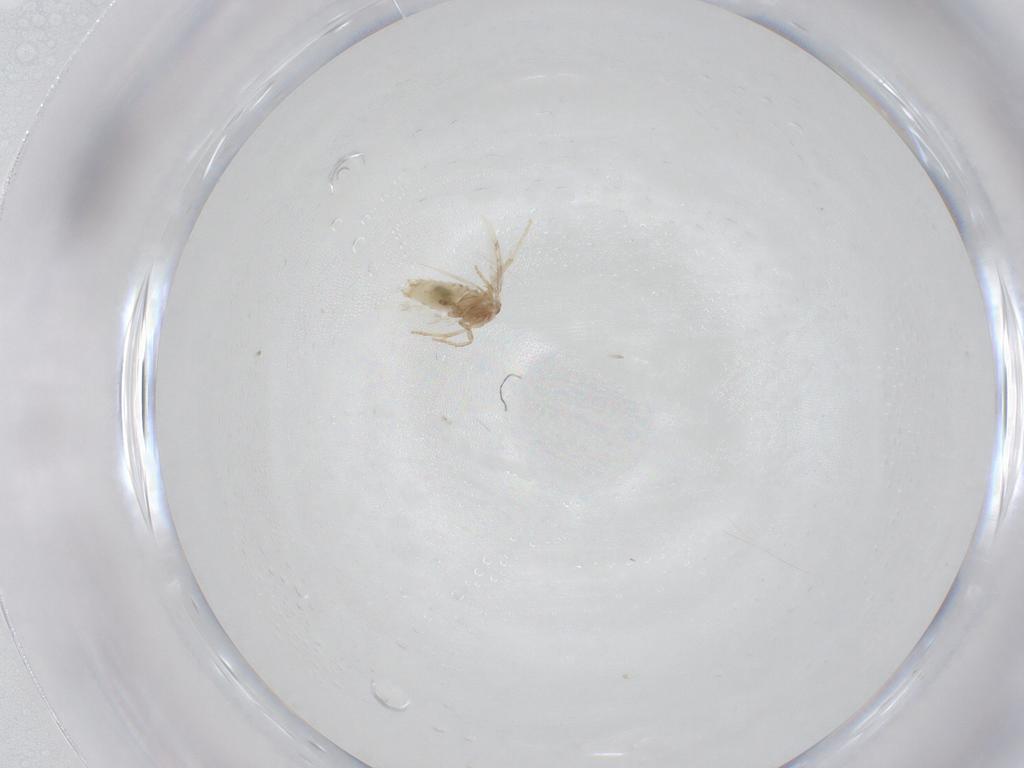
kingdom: Animalia
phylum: Arthropoda
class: Insecta
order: Lepidoptera
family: Nepticulidae
